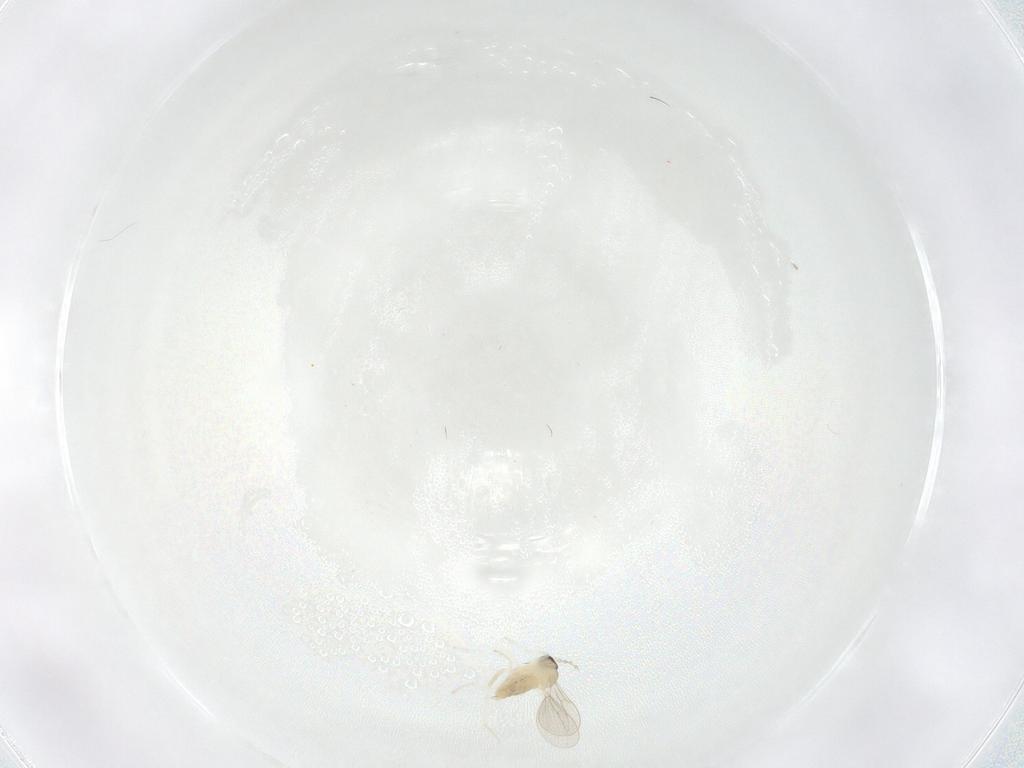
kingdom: Animalia
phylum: Arthropoda
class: Insecta
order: Diptera
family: Cecidomyiidae
